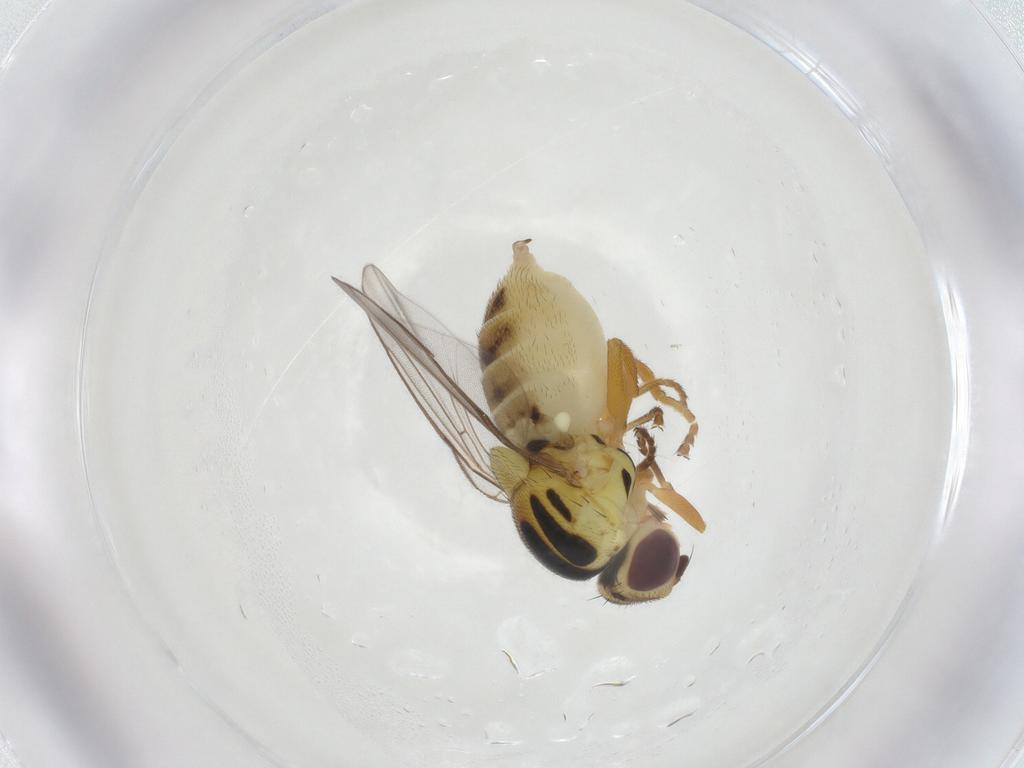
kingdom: Animalia
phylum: Arthropoda
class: Insecta
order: Diptera
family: Chloropidae
